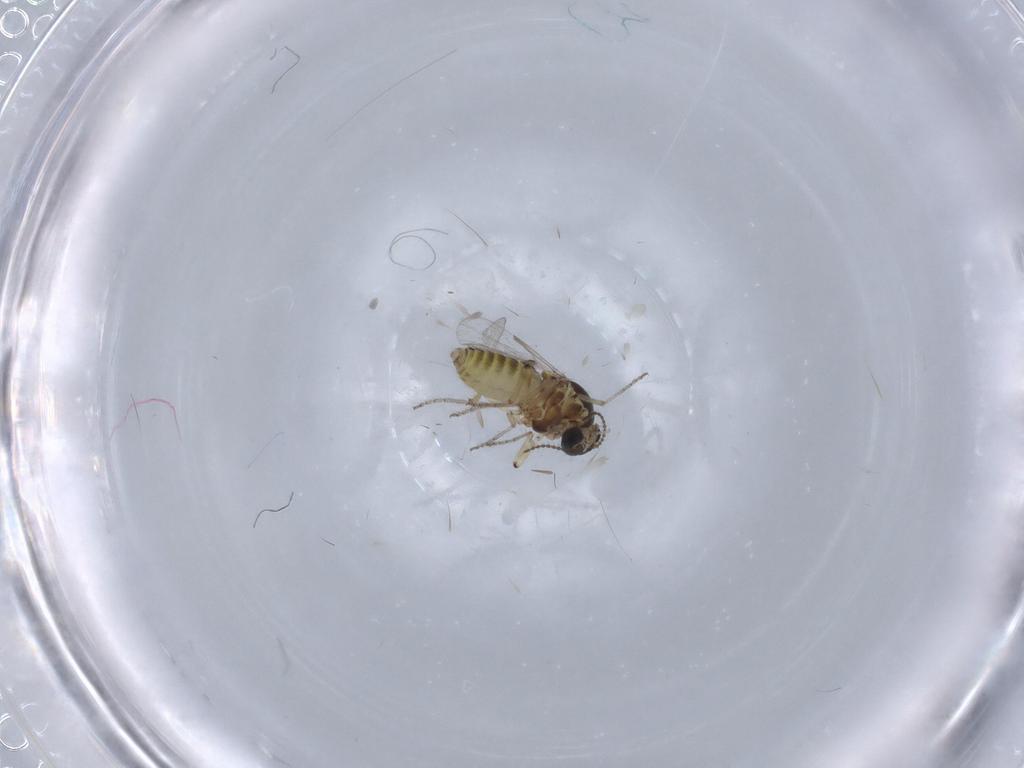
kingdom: Animalia
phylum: Arthropoda
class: Insecta
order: Diptera
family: Ceratopogonidae
